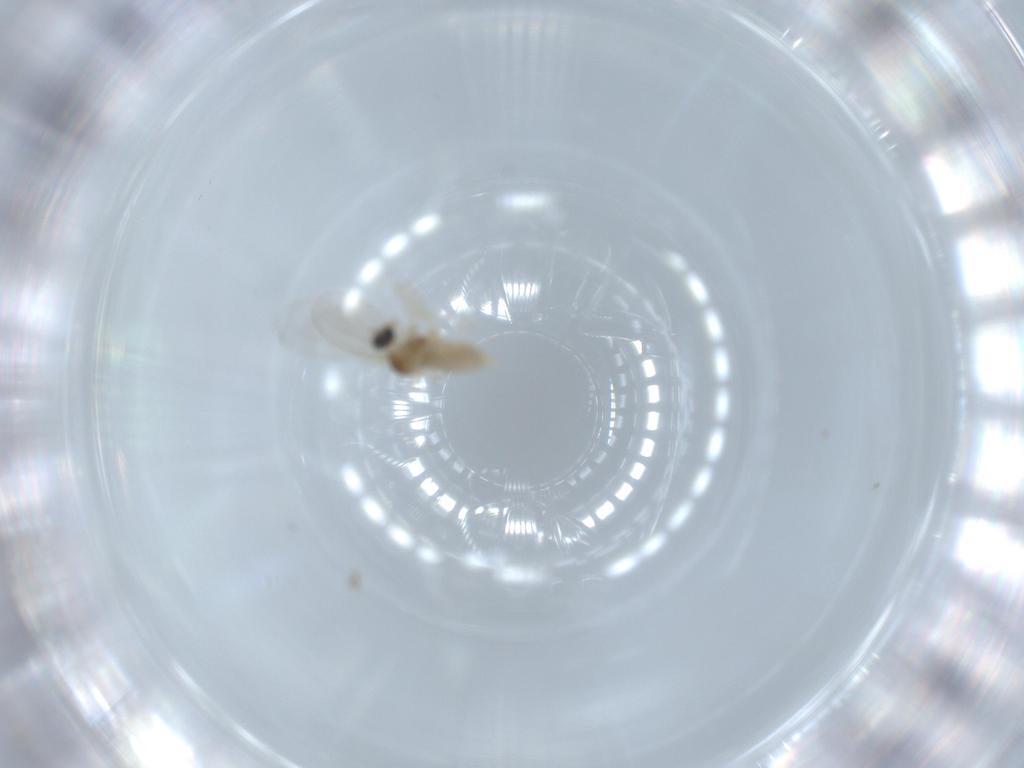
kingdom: Animalia
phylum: Arthropoda
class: Insecta
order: Diptera
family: Cecidomyiidae
